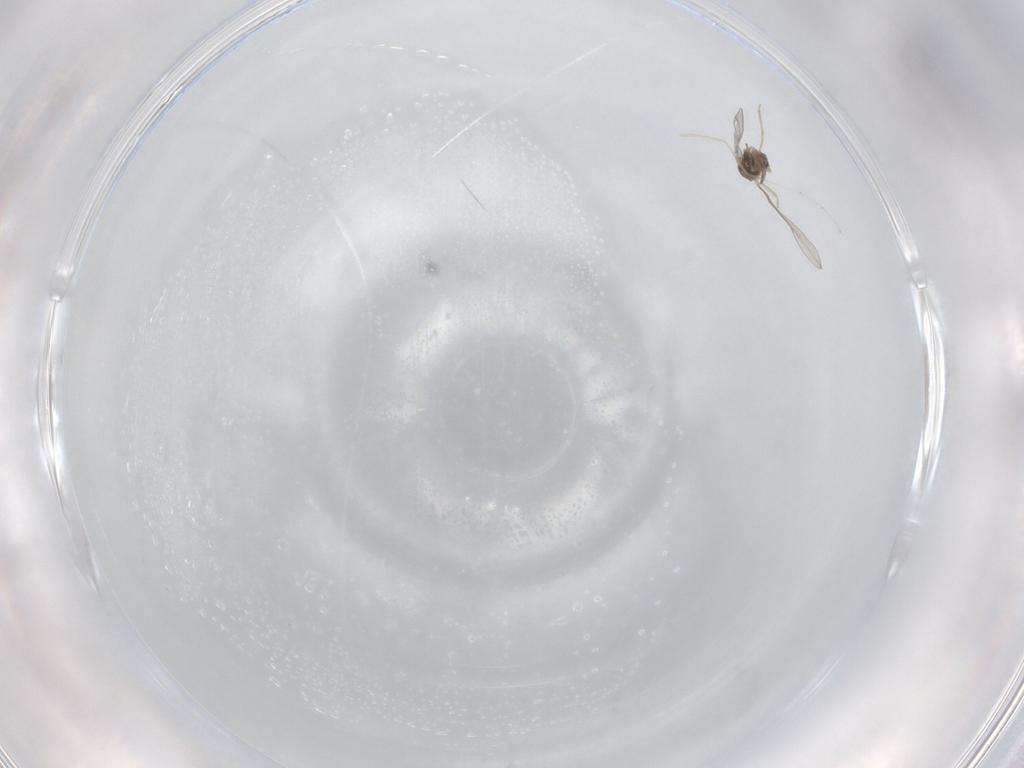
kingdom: Animalia
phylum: Arthropoda
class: Insecta
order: Diptera
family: Cecidomyiidae
